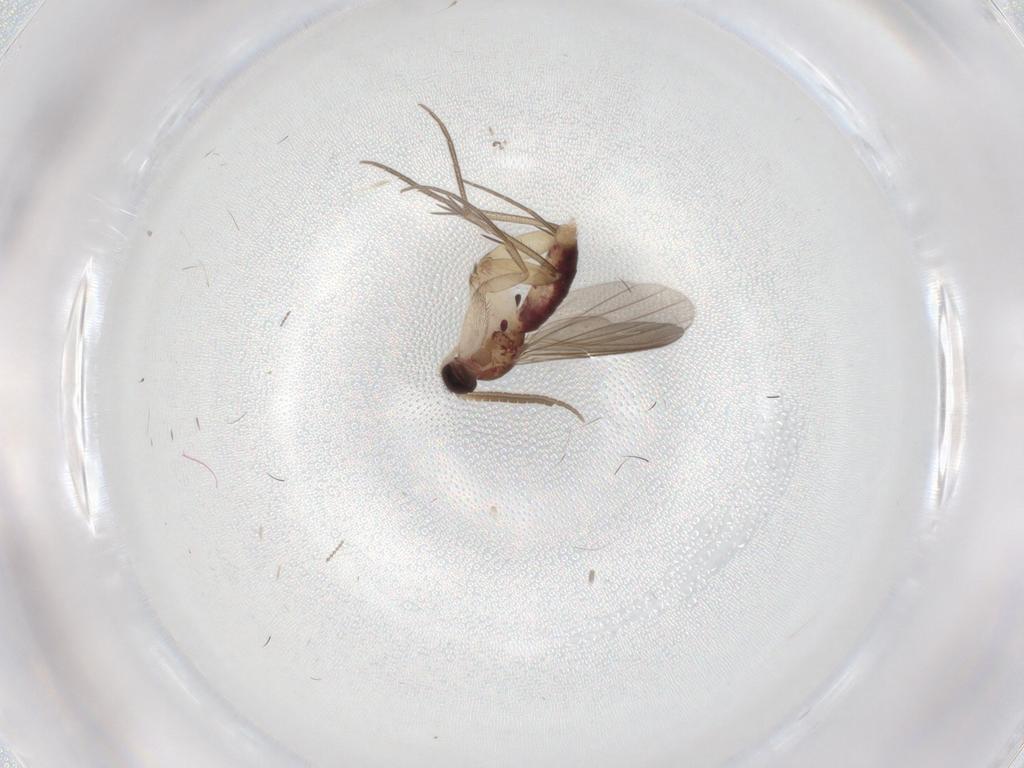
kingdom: Animalia
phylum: Arthropoda
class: Insecta
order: Diptera
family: Mycetophilidae
